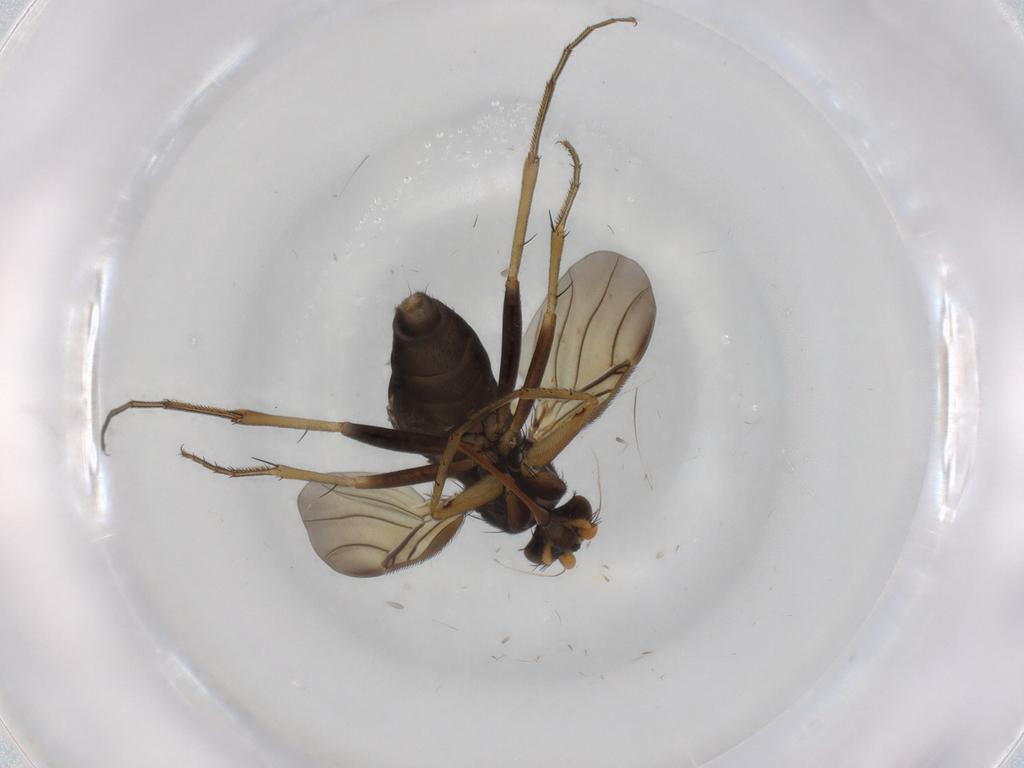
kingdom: Animalia
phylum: Arthropoda
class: Insecta
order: Diptera
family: Phoridae
